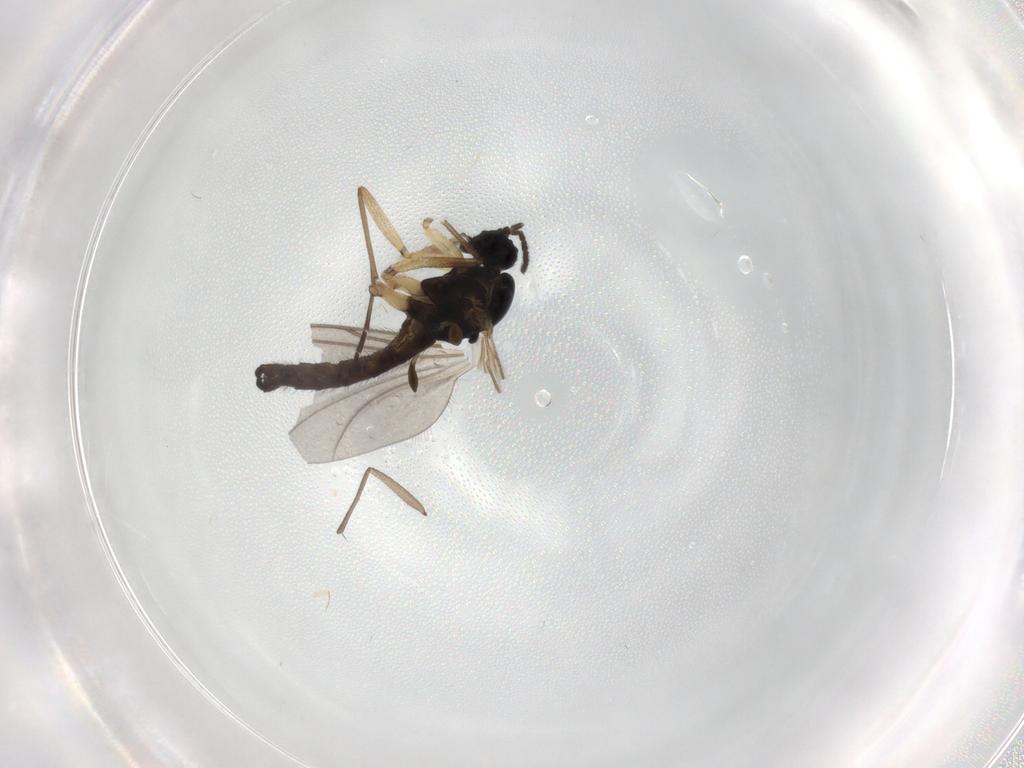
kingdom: Animalia
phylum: Arthropoda
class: Insecta
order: Diptera
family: Sciaridae
